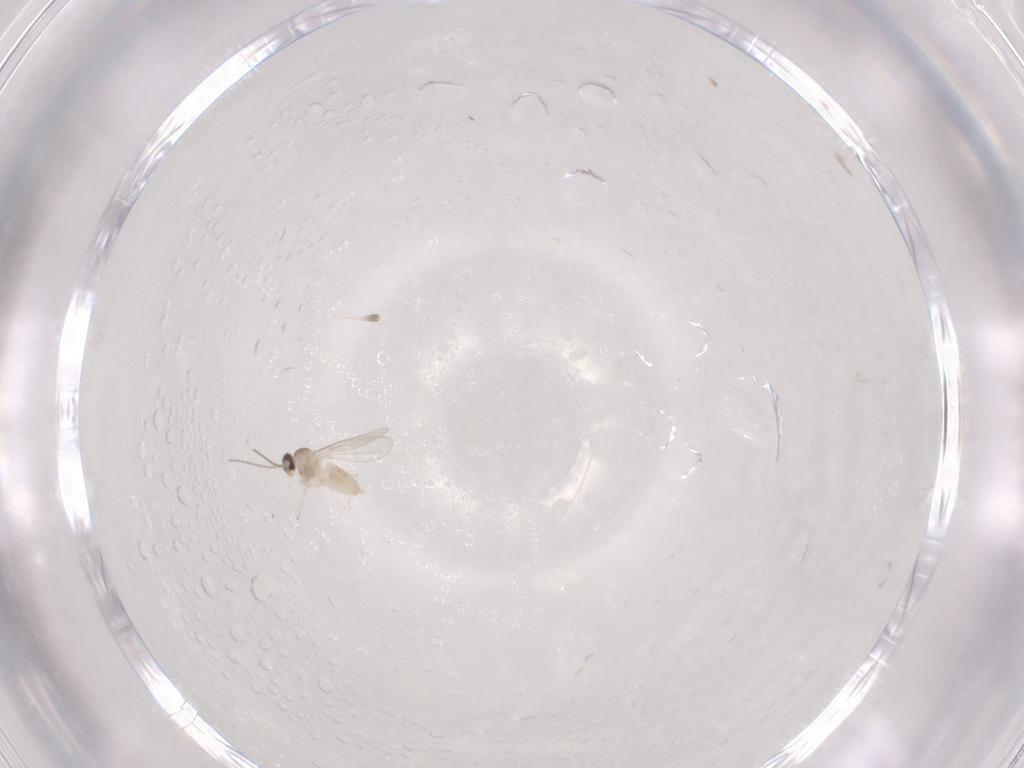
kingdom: Animalia
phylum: Arthropoda
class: Insecta
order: Diptera
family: Cecidomyiidae
